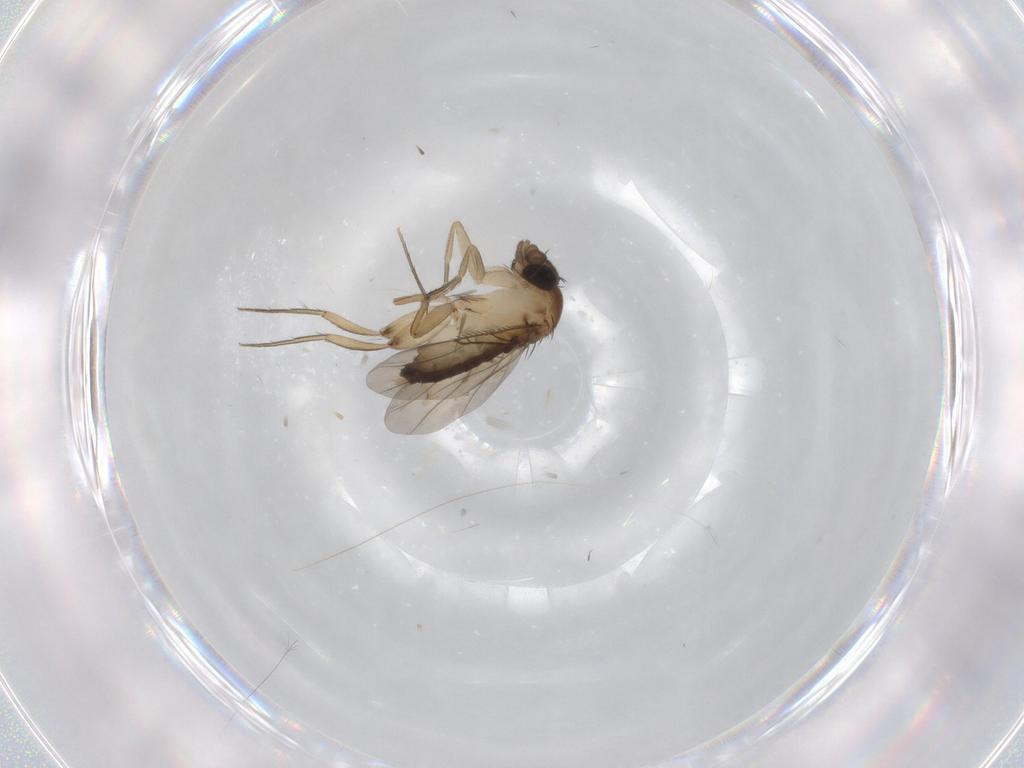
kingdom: Animalia
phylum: Arthropoda
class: Insecta
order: Diptera
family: Phoridae
